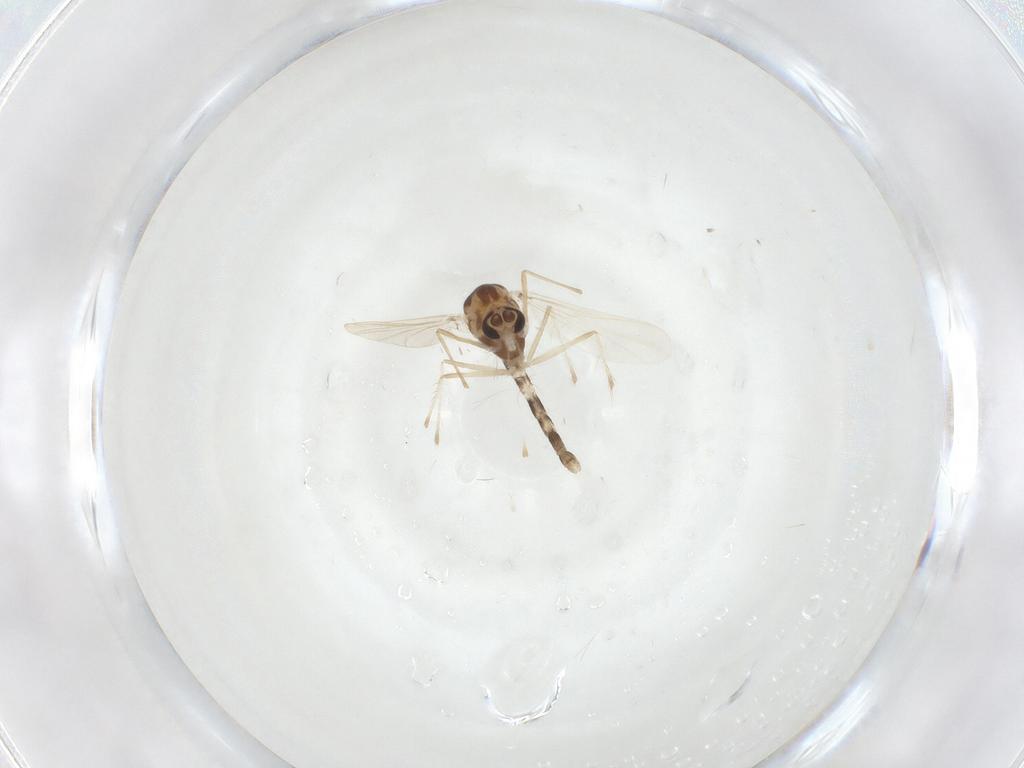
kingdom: Animalia
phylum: Arthropoda
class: Insecta
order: Diptera
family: Chironomidae
